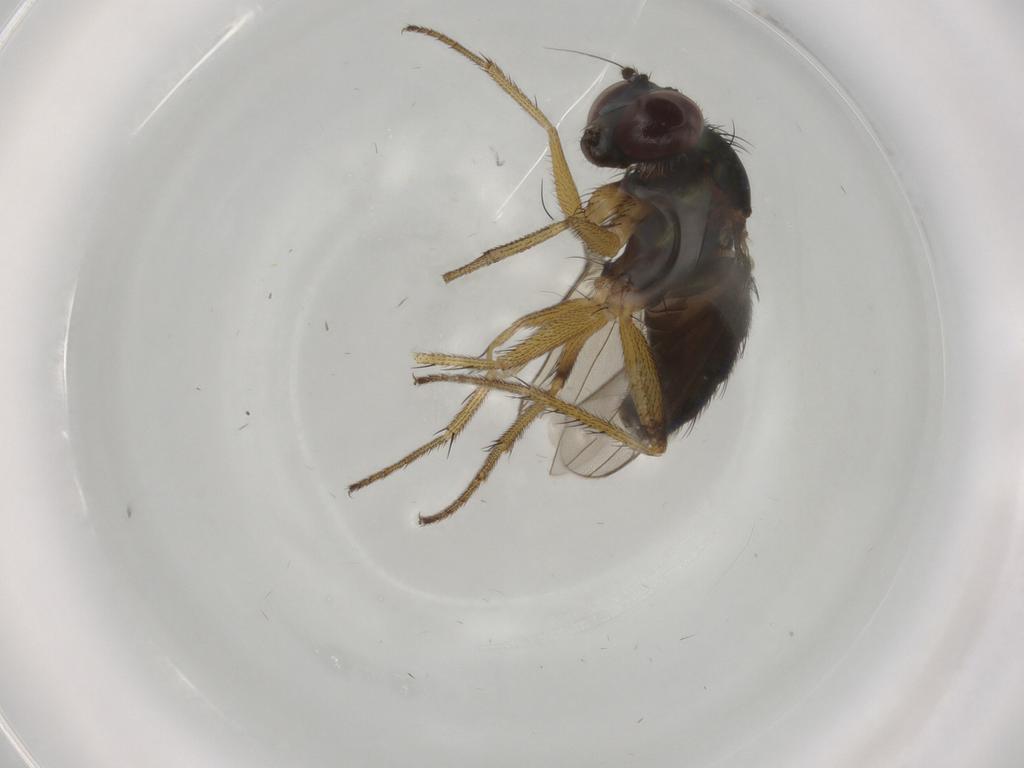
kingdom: Animalia
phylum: Arthropoda
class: Insecta
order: Diptera
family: Dolichopodidae
